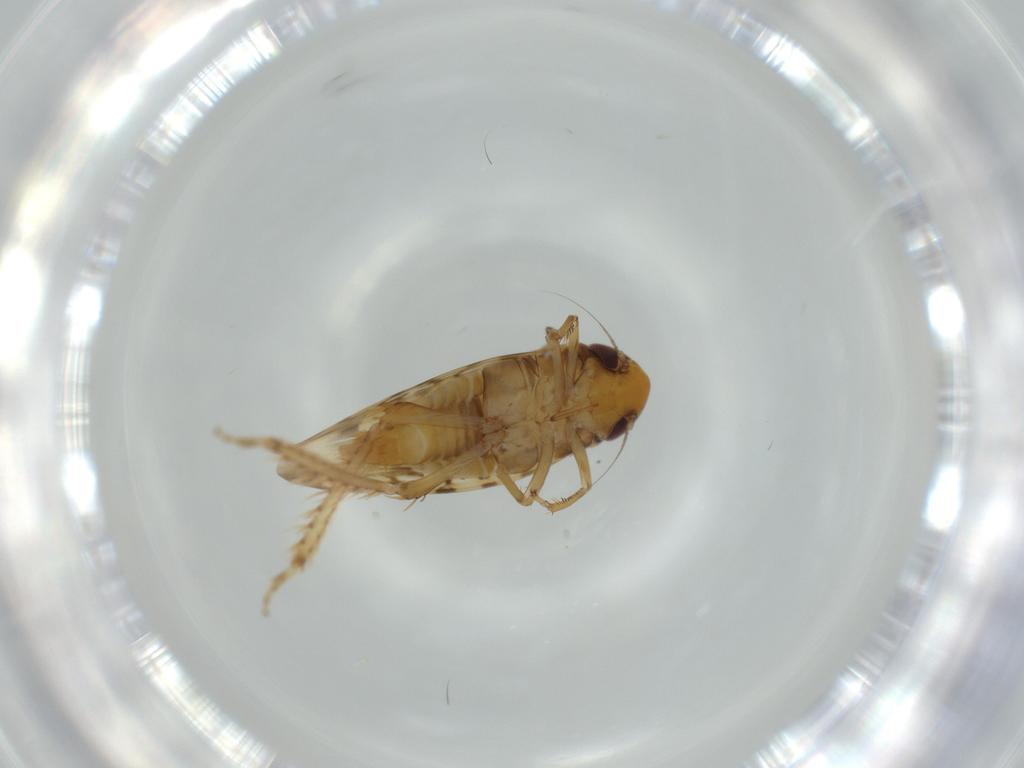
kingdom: Animalia
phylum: Arthropoda
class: Insecta
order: Hemiptera
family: Cicadellidae
